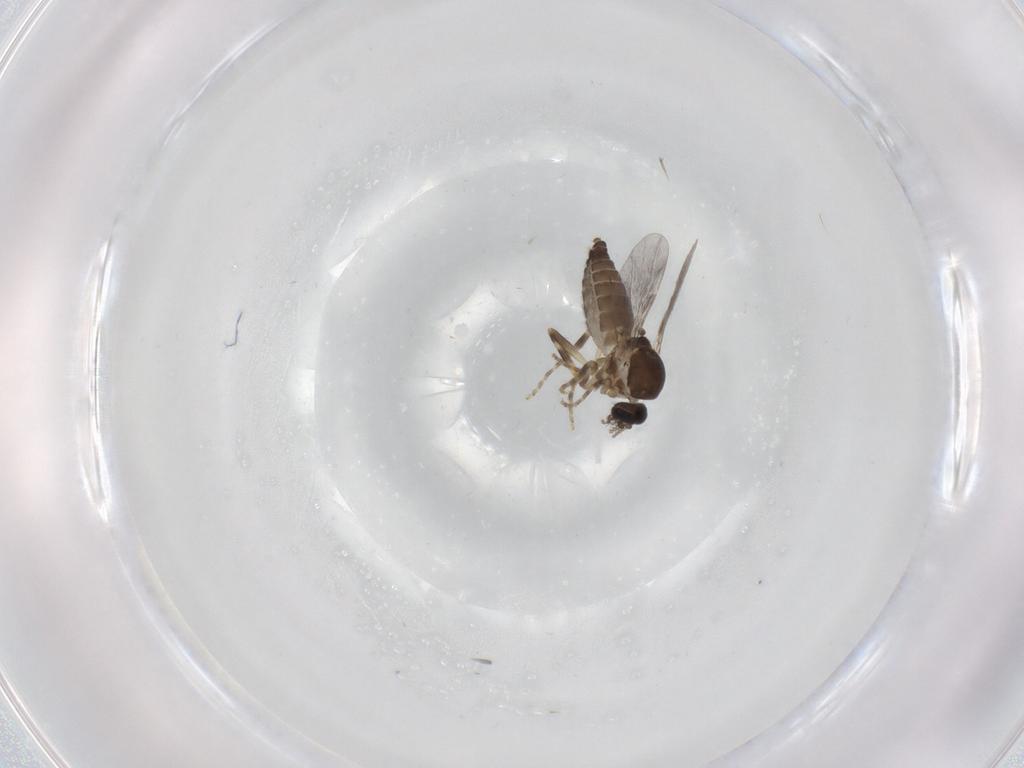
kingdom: Animalia
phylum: Arthropoda
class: Insecta
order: Diptera
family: Ceratopogonidae
